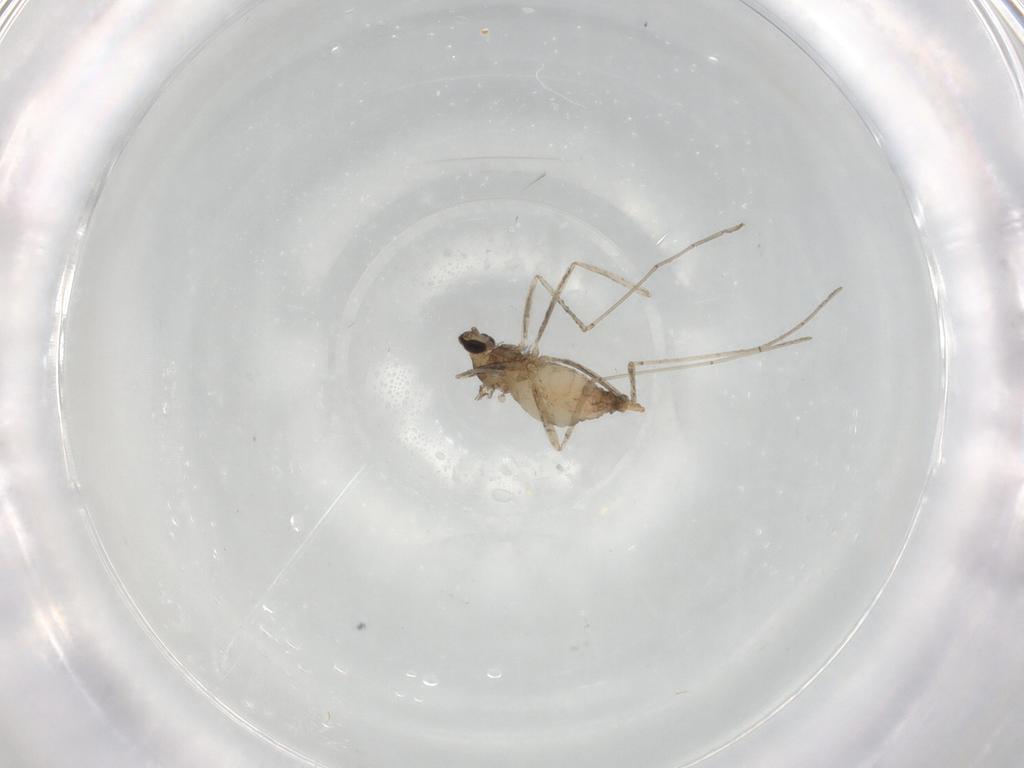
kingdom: Animalia
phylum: Arthropoda
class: Insecta
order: Diptera
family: Cecidomyiidae
